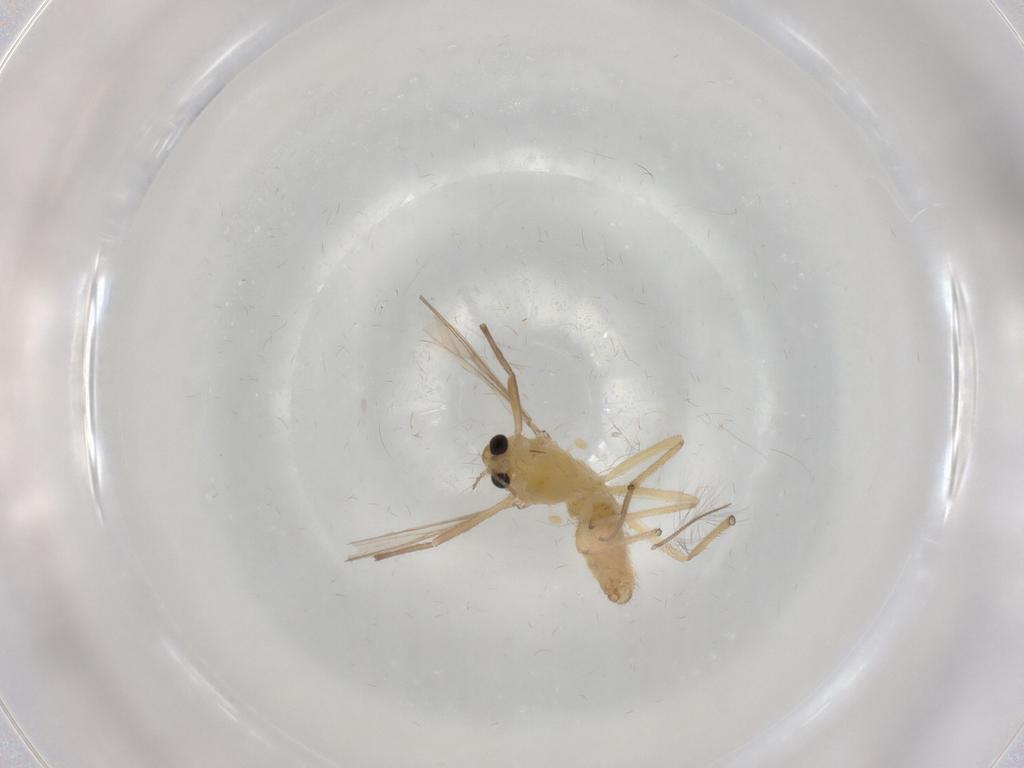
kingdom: Animalia
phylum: Arthropoda
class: Insecta
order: Diptera
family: Chironomidae
